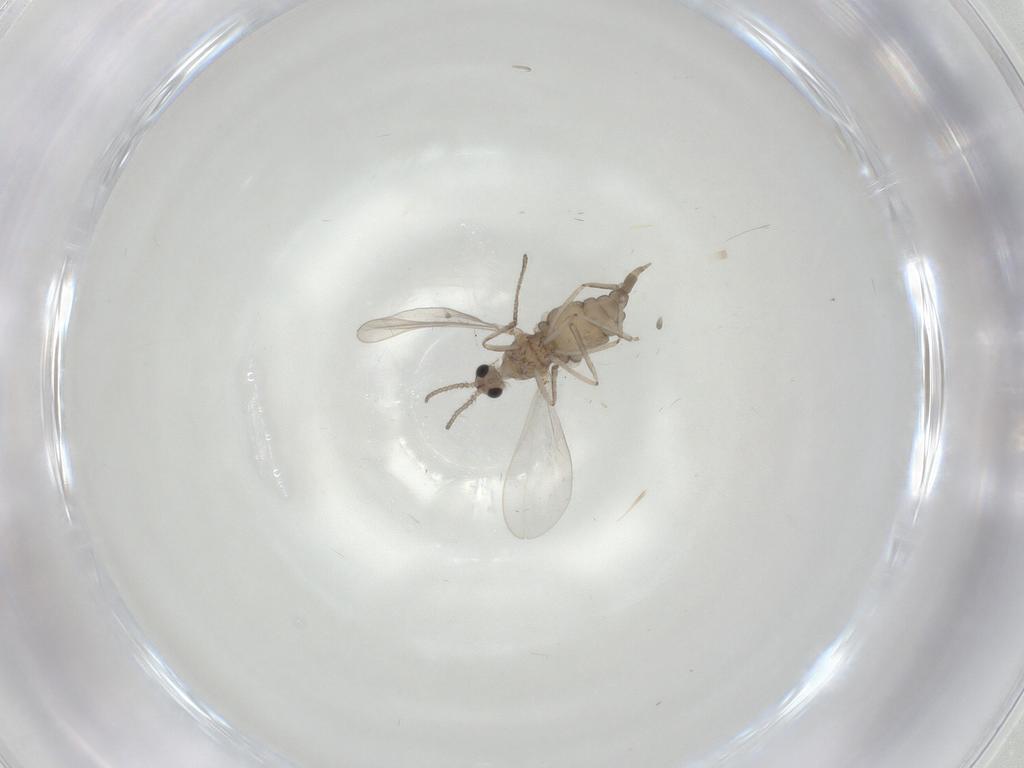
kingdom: Animalia
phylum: Arthropoda
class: Insecta
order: Diptera
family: Cecidomyiidae
